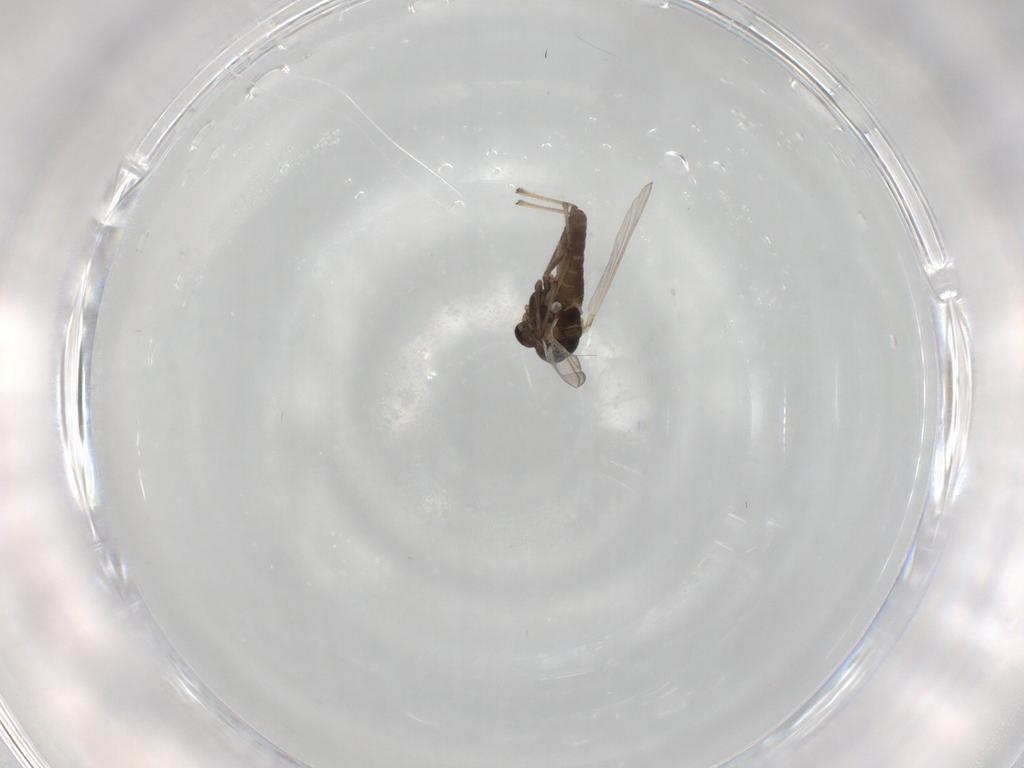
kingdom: Animalia
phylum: Arthropoda
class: Insecta
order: Diptera
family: Chironomidae
